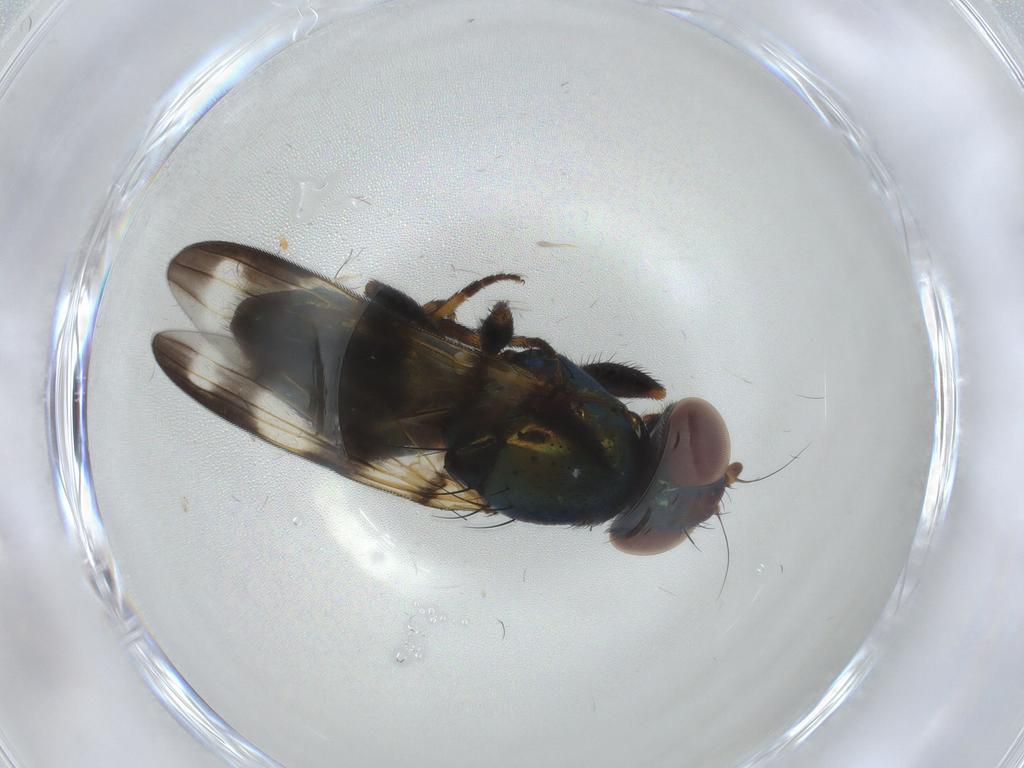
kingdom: Animalia
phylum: Arthropoda
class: Insecta
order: Diptera
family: Ulidiidae
